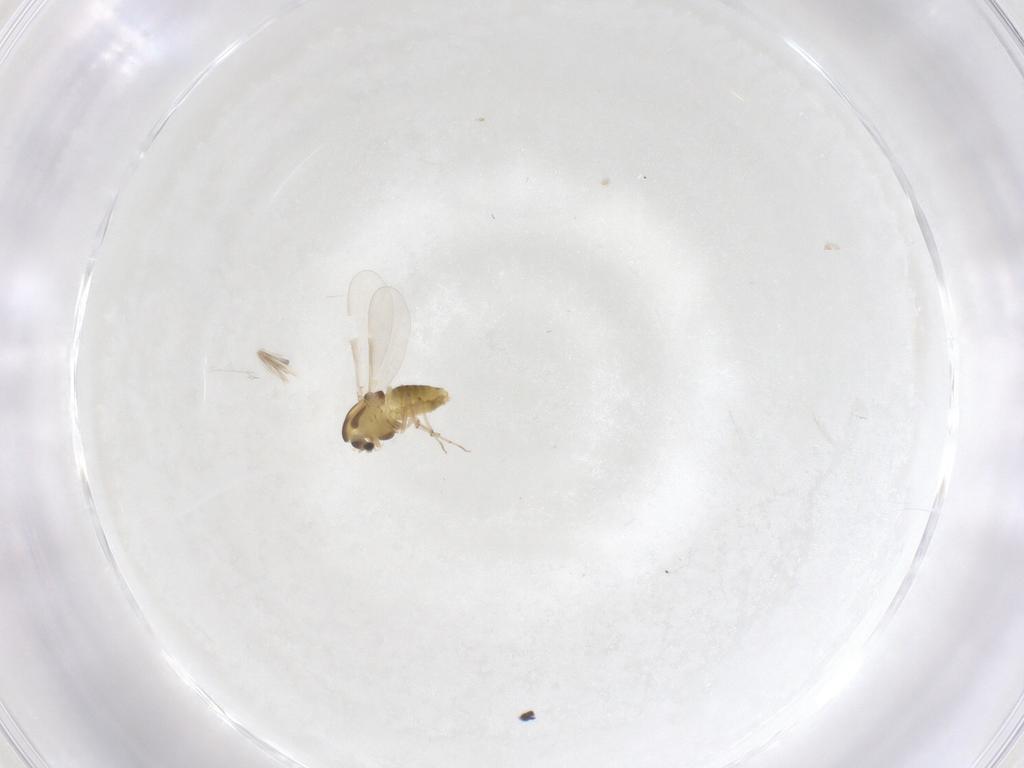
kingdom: Animalia
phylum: Arthropoda
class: Insecta
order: Diptera
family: Chironomidae
